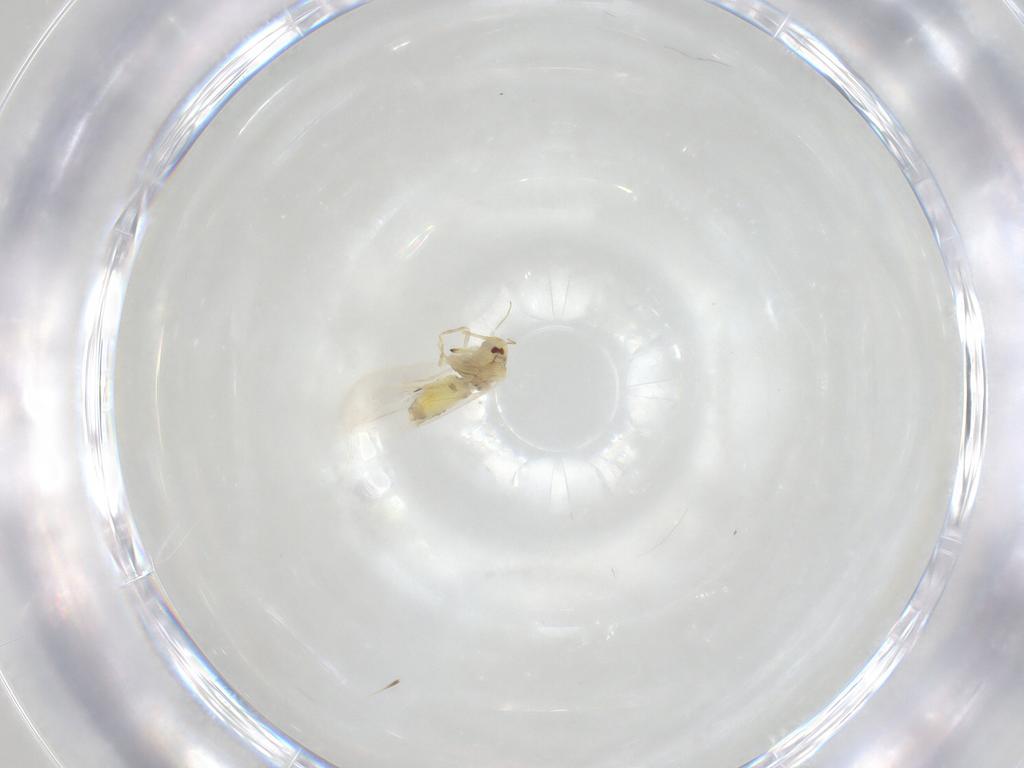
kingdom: Animalia
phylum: Arthropoda
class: Insecta
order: Hemiptera
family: Aleyrodidae
